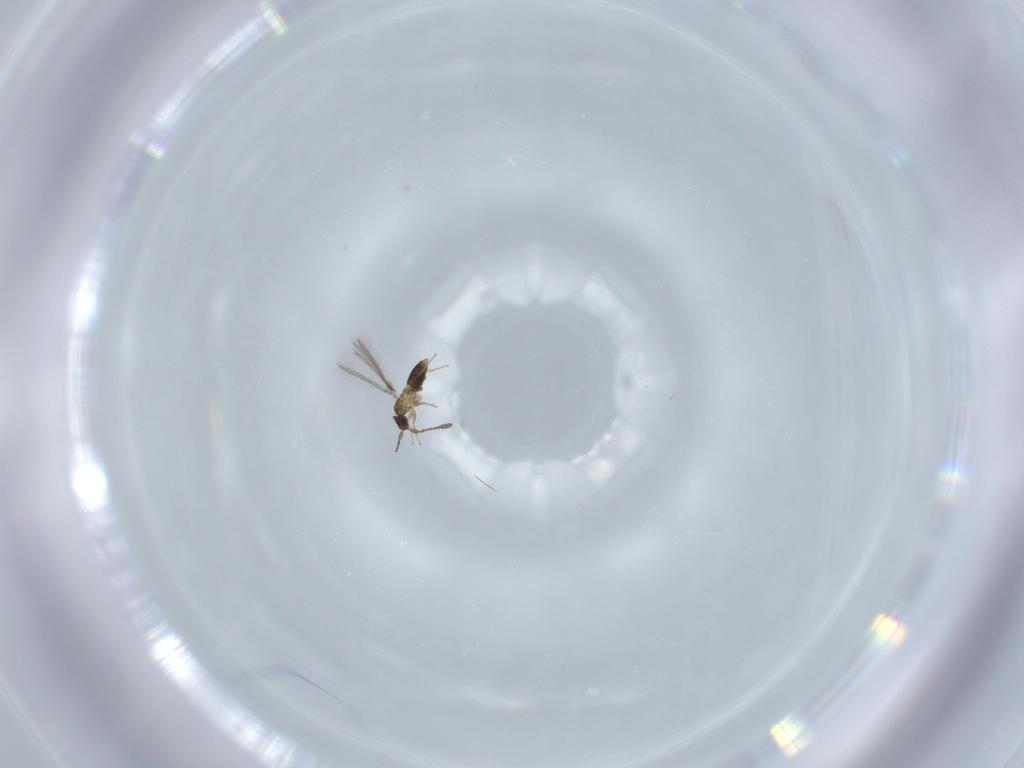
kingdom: Animalia
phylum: Arthropoda
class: Insecta
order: Hymenoptera
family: Mymaridae
